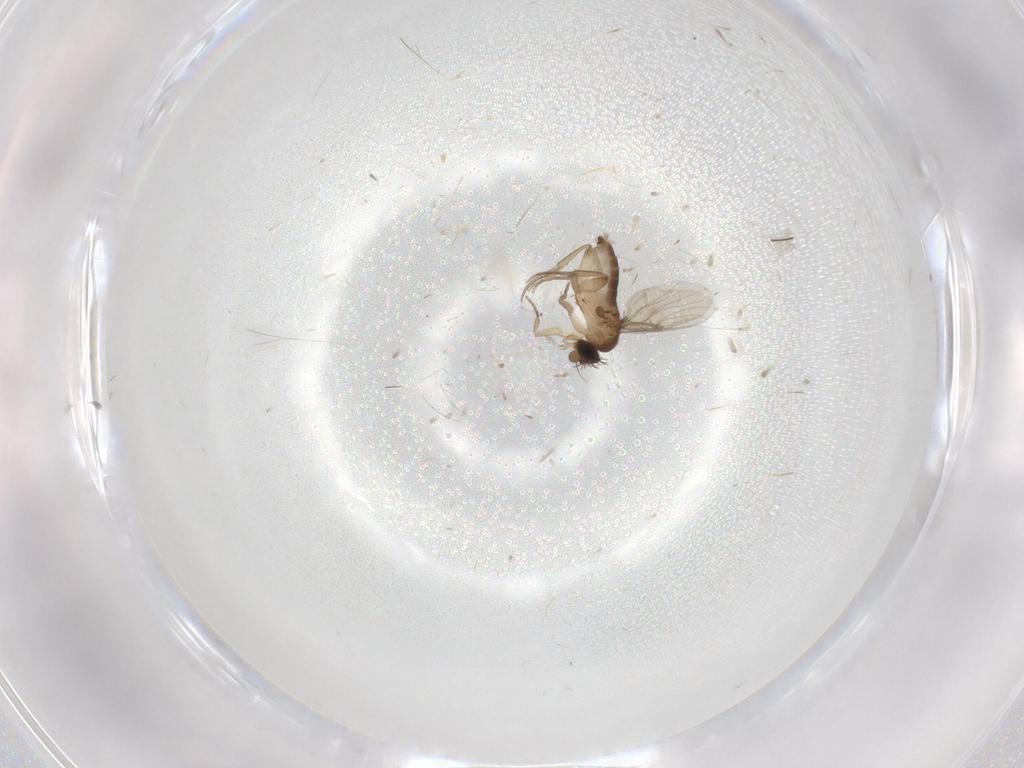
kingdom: Animalia
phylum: Arthropoda
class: Insecta
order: Diptera
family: Phoridae
